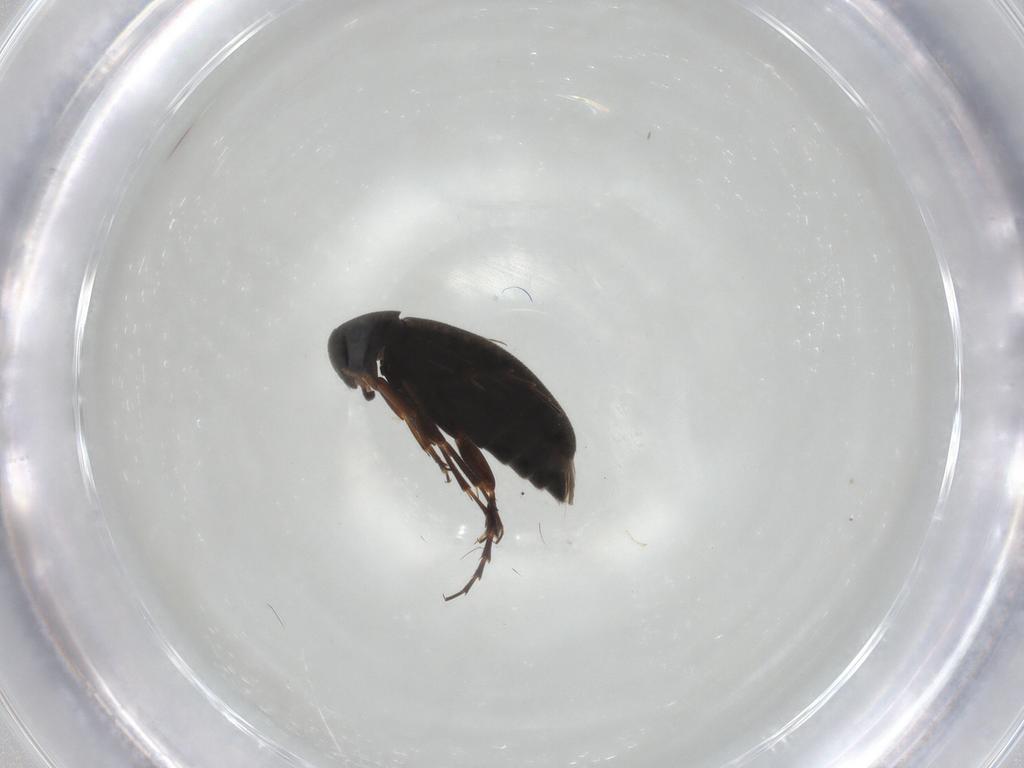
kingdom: Animalia
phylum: Arthropoda
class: Insecta
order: Coleoptera
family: Scraptiidae
